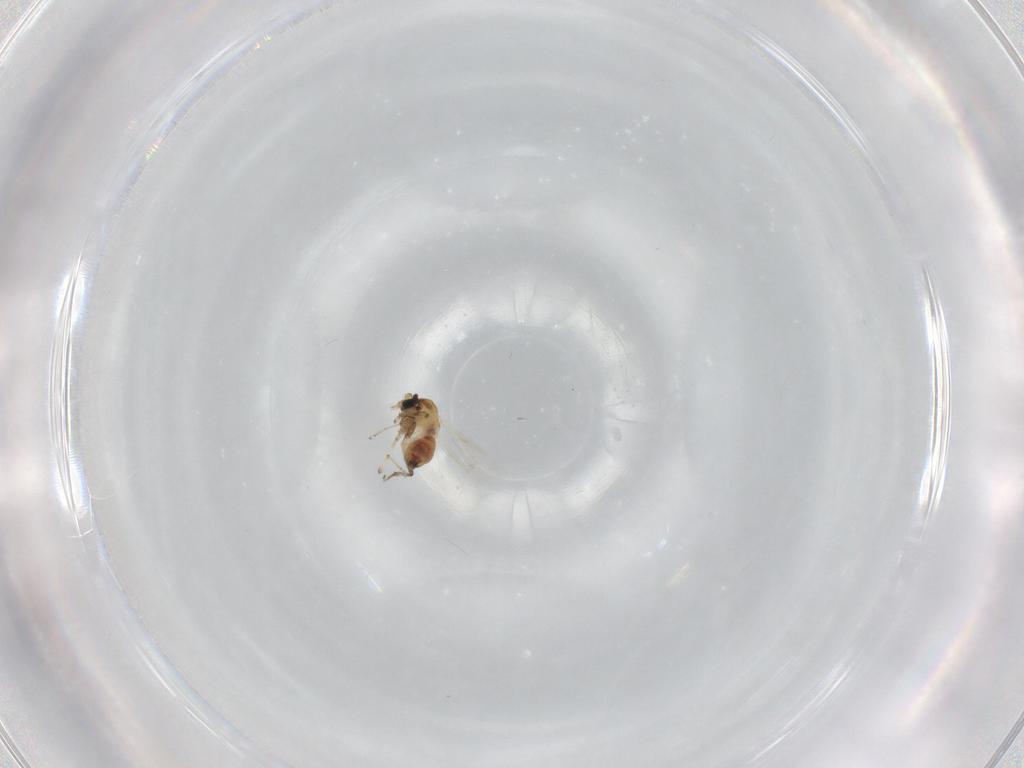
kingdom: Animalia
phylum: Arthropoda
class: Insecta
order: Diptera
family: Ceratopogonidae
